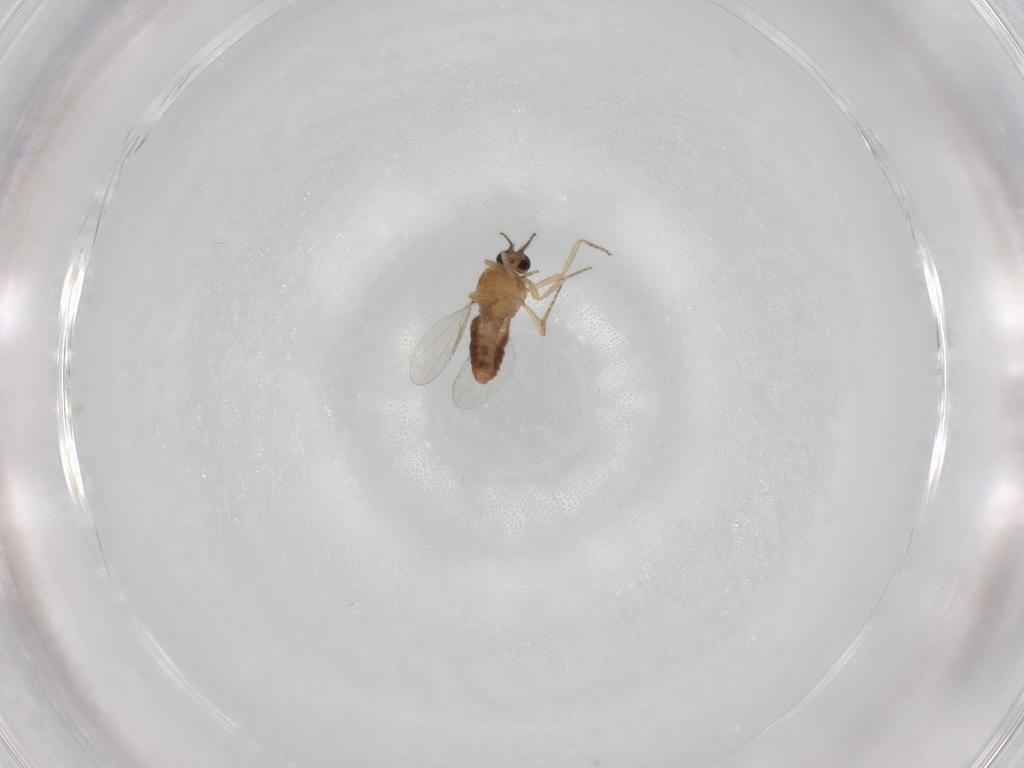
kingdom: Animalia
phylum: Arthropoda
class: Insecta
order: Diptera
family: Ceratopogonidae
